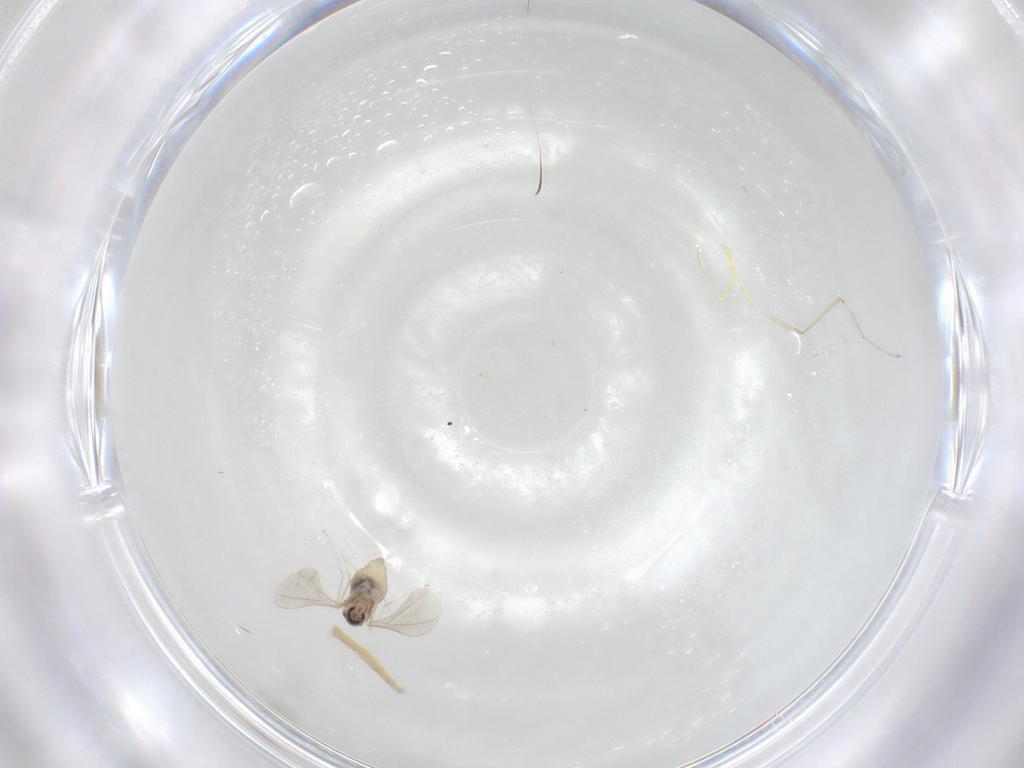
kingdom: Animalia
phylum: Arthropoda
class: Insecta
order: Diptera
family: Cecidomyiidae
